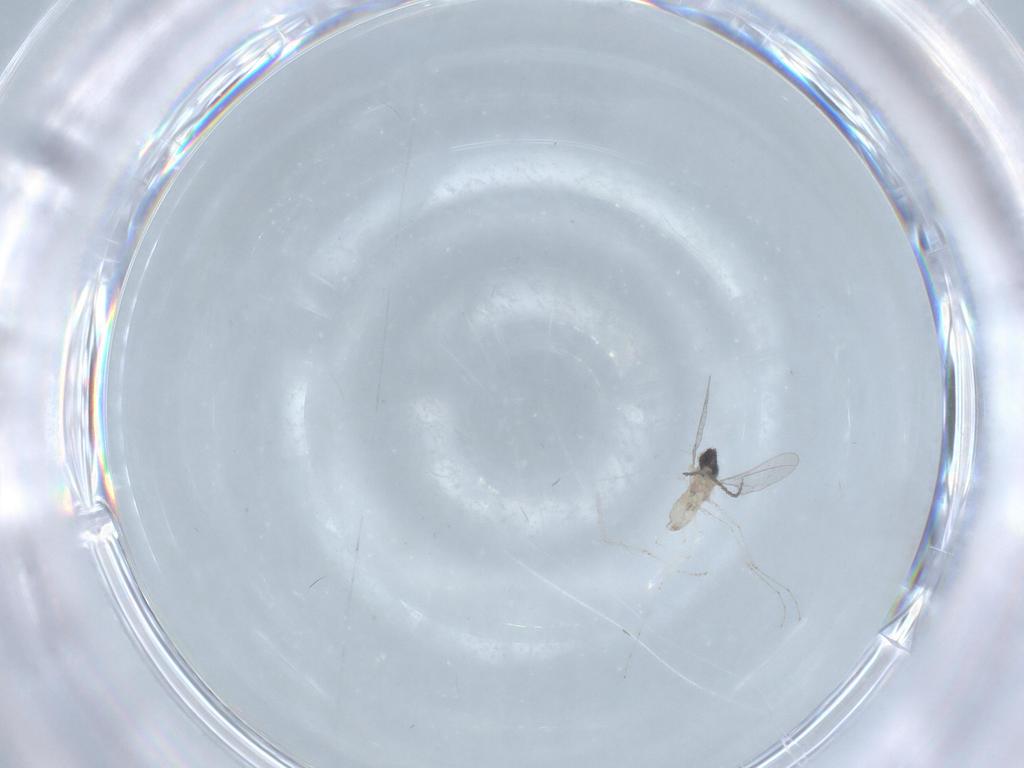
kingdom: Animalia
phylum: Arthropoda
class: Insecta
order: Diptera
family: Cecidomyiidae
